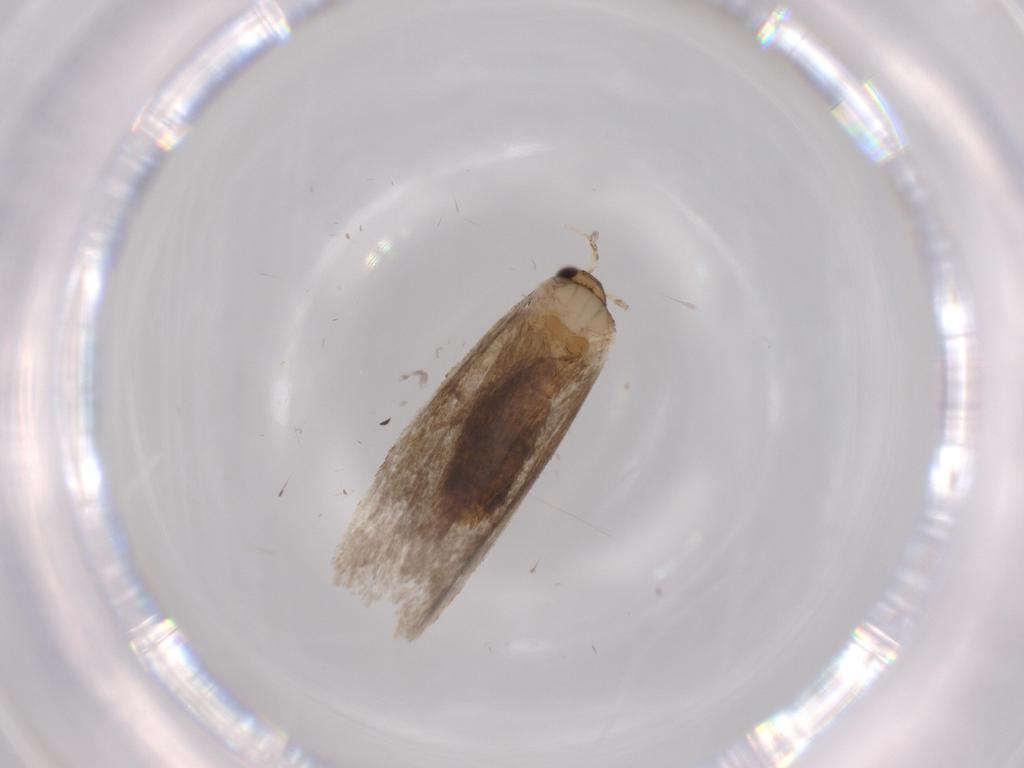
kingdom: Animalia
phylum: Arthropoda
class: Insecta
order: Lepidoptera
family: Tineidae
